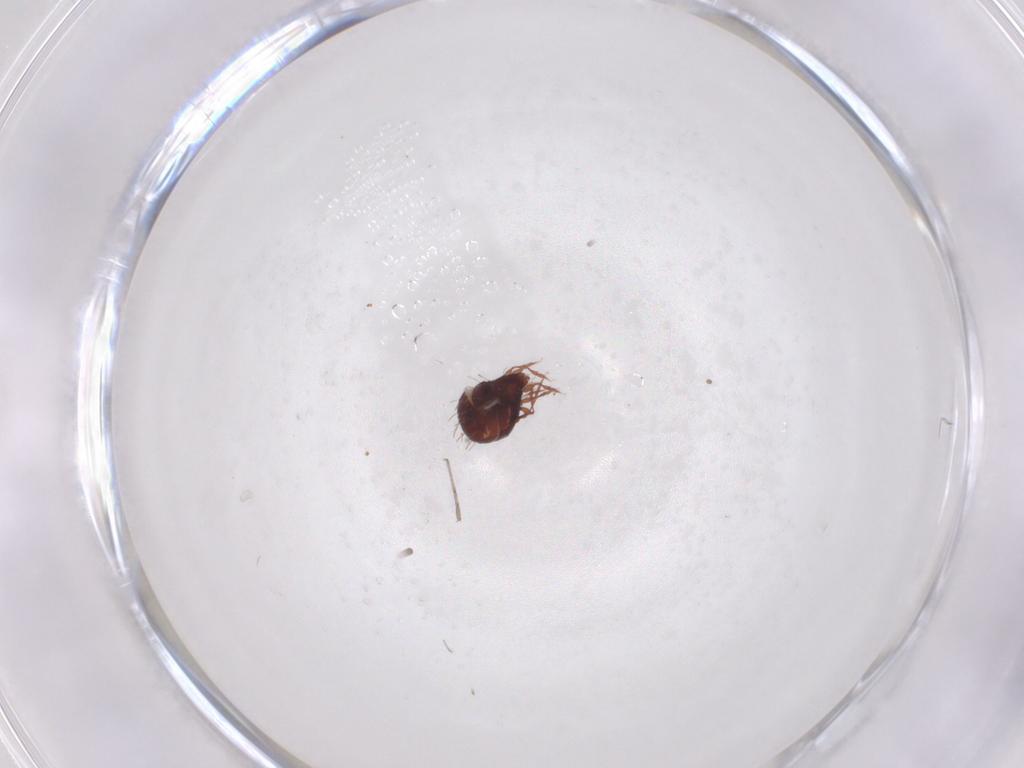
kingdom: Animalia
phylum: Arthropoda
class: Arachnida
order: Sarcoptiformes
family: Caloppiidae
